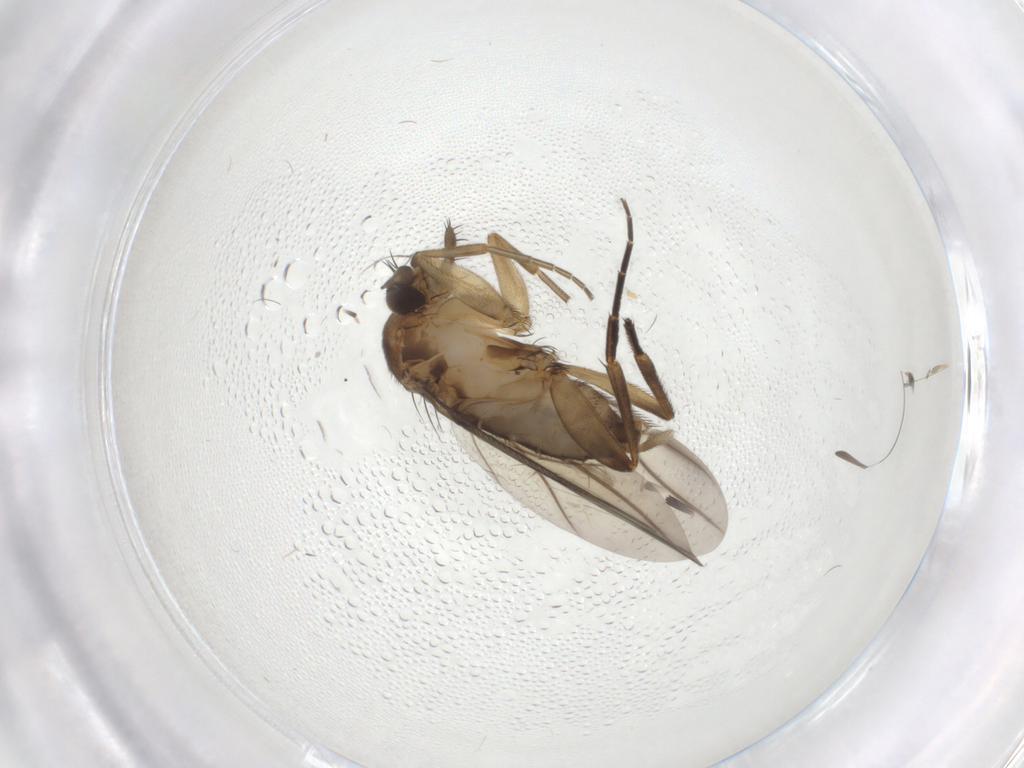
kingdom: Animalia
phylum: Arthropoda
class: Insecta
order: Diptera
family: Phoridae
